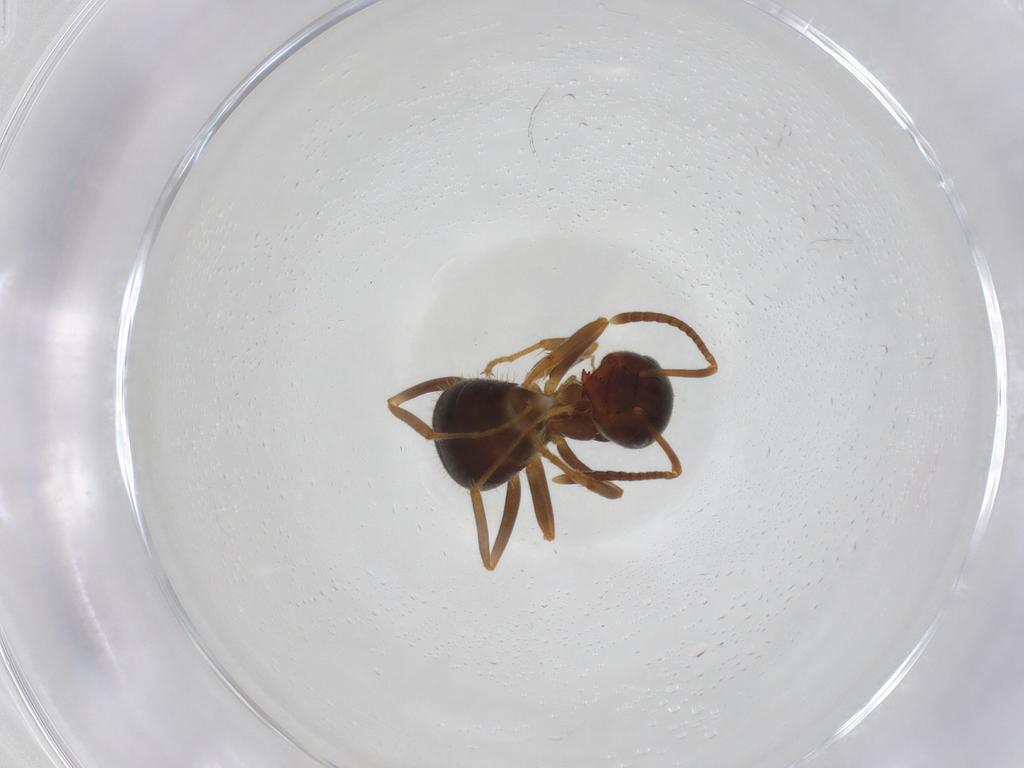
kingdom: Animalia
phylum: Arthropoda
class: Insecta
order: Hymenoptera
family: Formicidae
